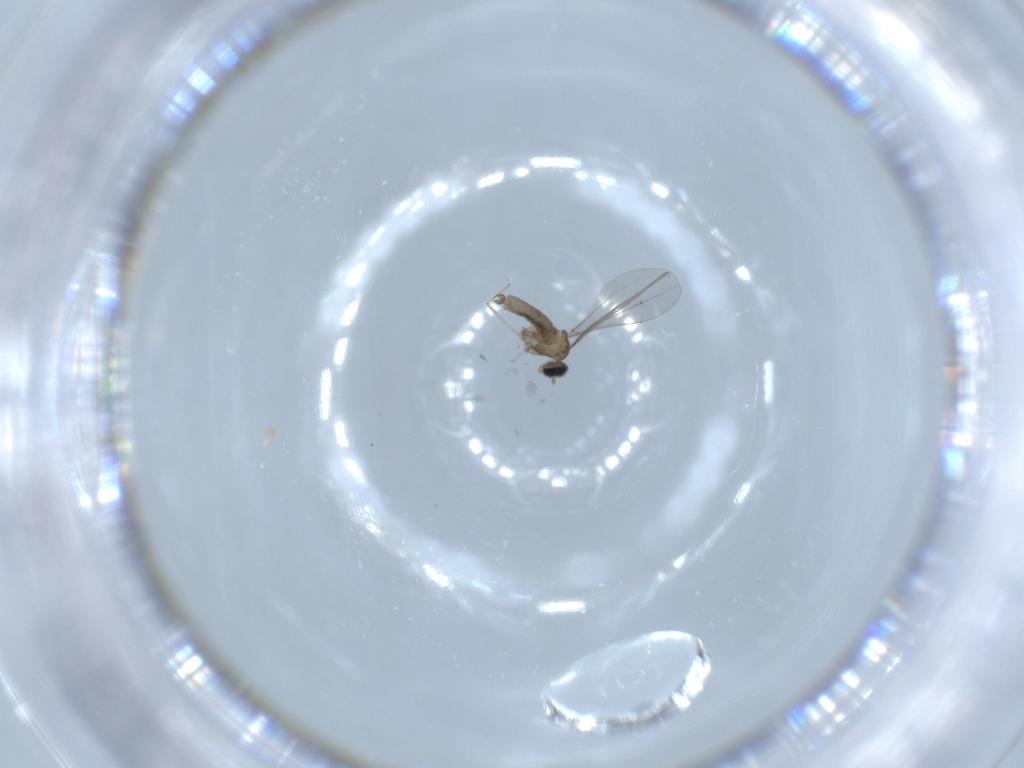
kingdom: Animalia
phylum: Arthropoda
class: Insecta
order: Diptera
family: Cecidomyiidae
